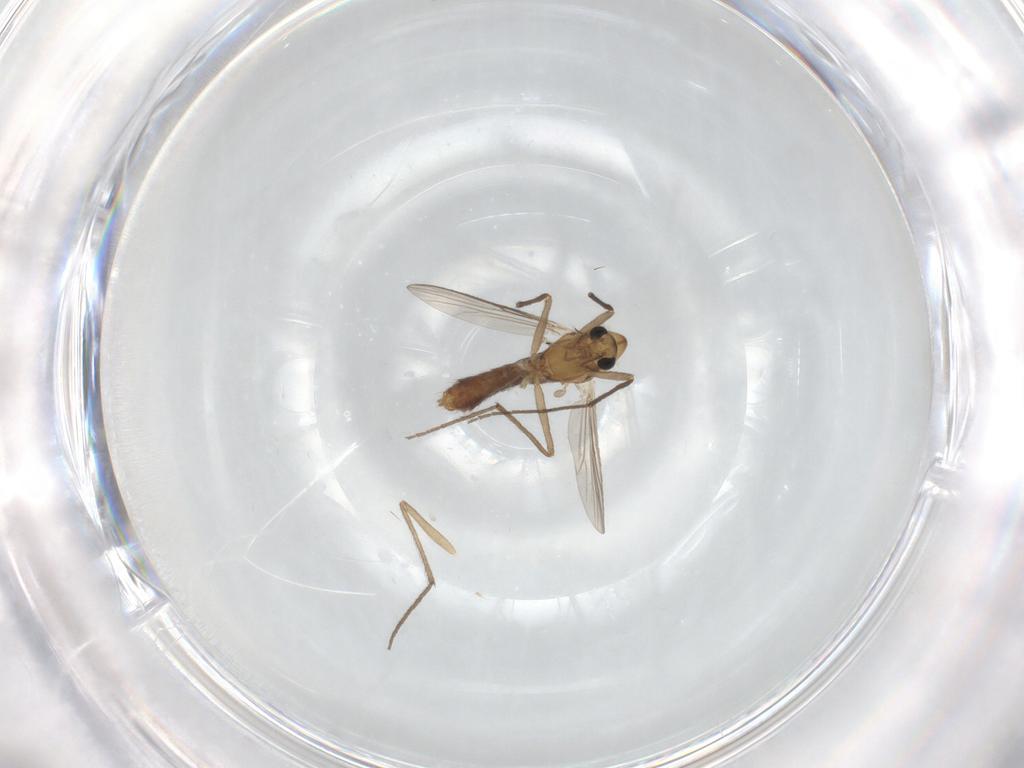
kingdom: Animalia
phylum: Arthropoda
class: Insecta
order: Diptera
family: Chironomidae
